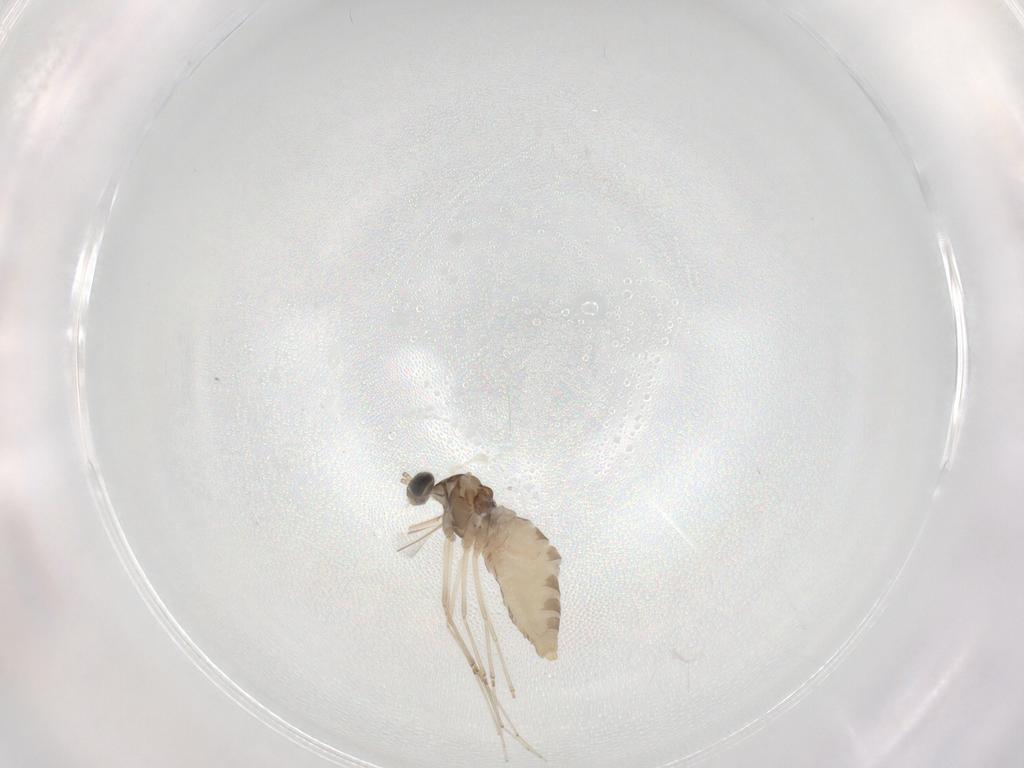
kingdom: Animalia
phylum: Arthropoda
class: Insecta
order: Diptera
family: Cecidomyiidae
